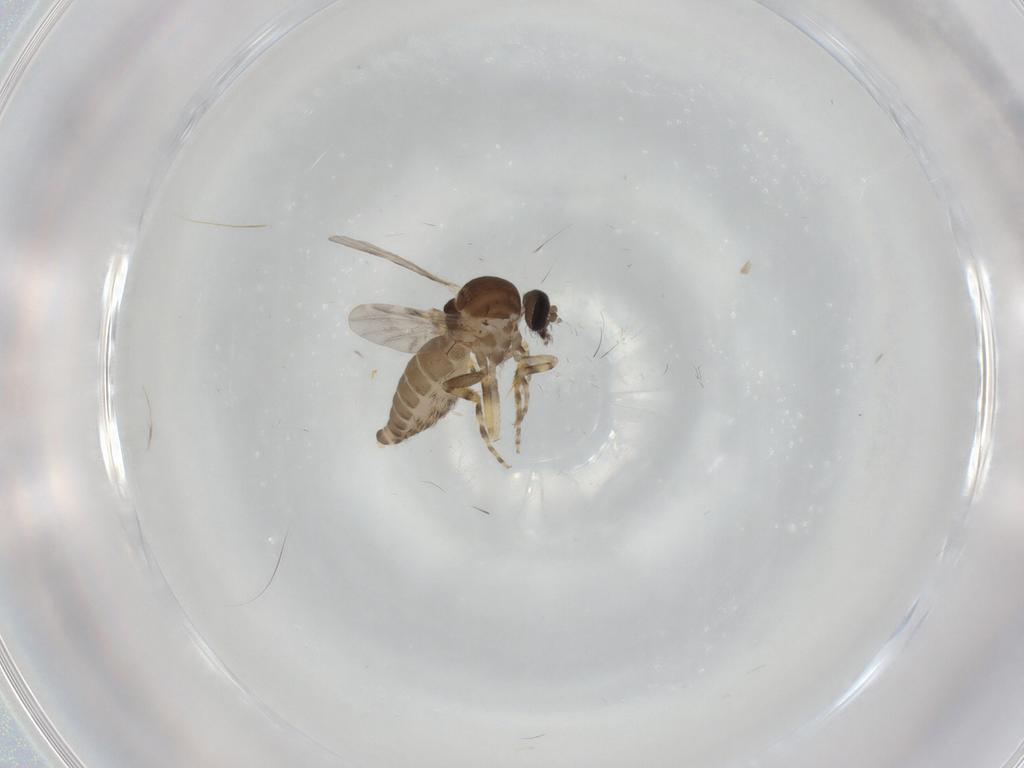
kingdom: Animalia
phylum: Arthropoda
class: Insecta
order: Diptera
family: Ceratopogonidae
